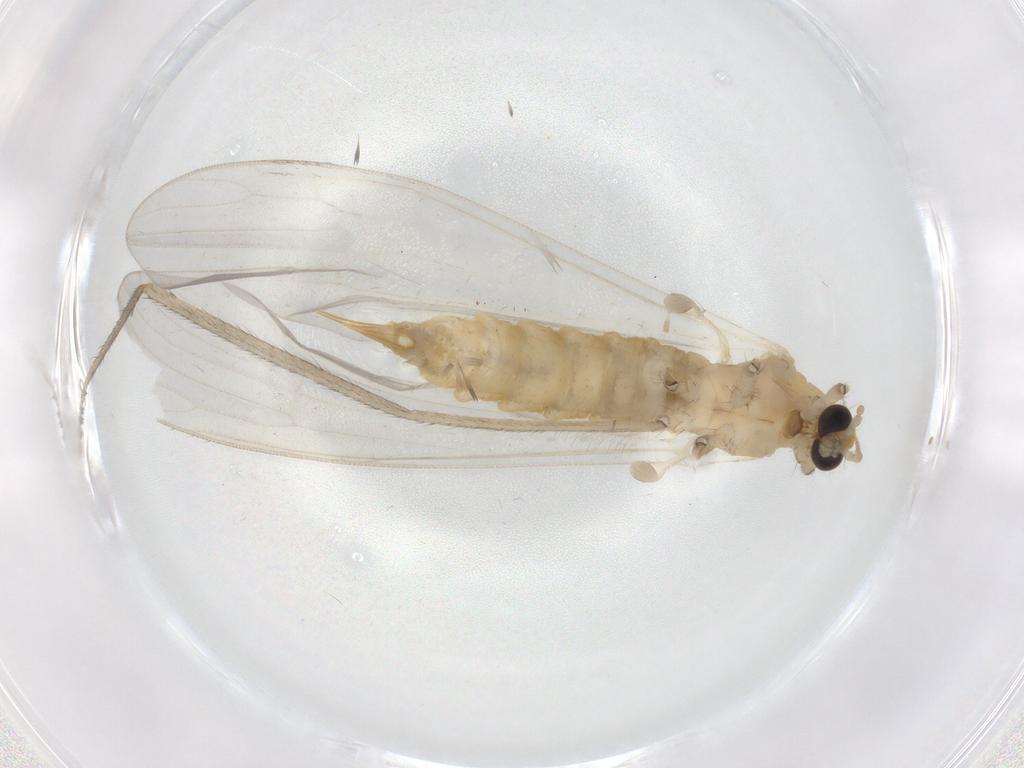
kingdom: Animalia
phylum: Arthropoda
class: Insecta
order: Diptera
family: Limoniidae
